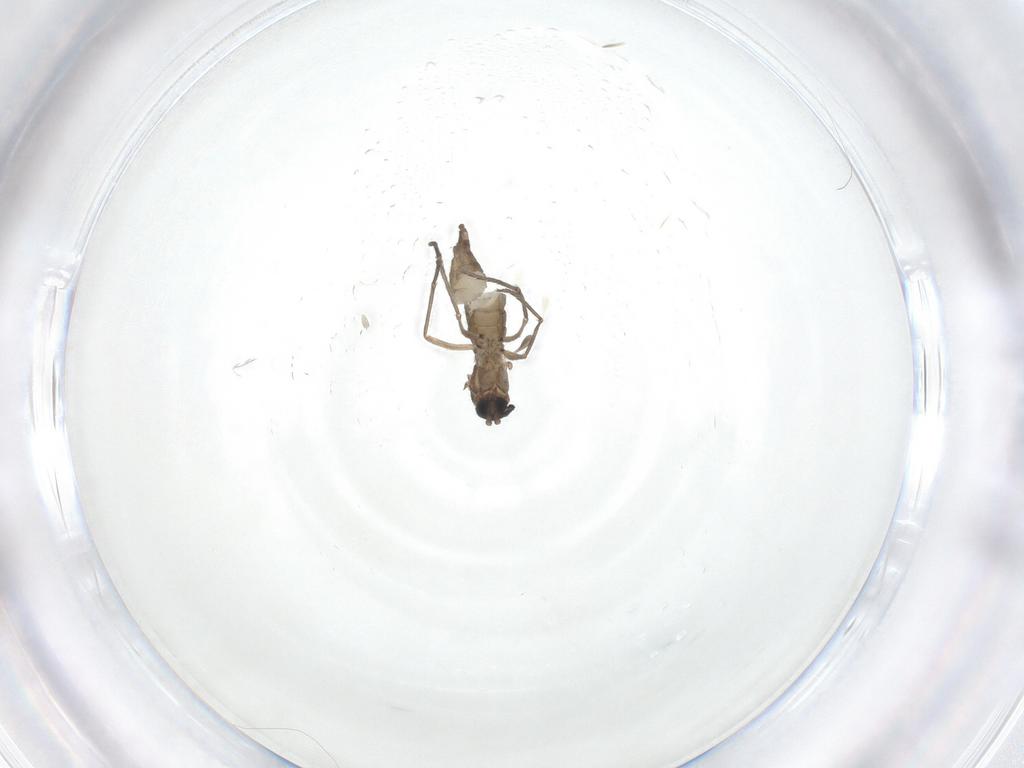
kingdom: Animalia
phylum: Arthropoda
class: Insecta
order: Diptera
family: Sciaridae
